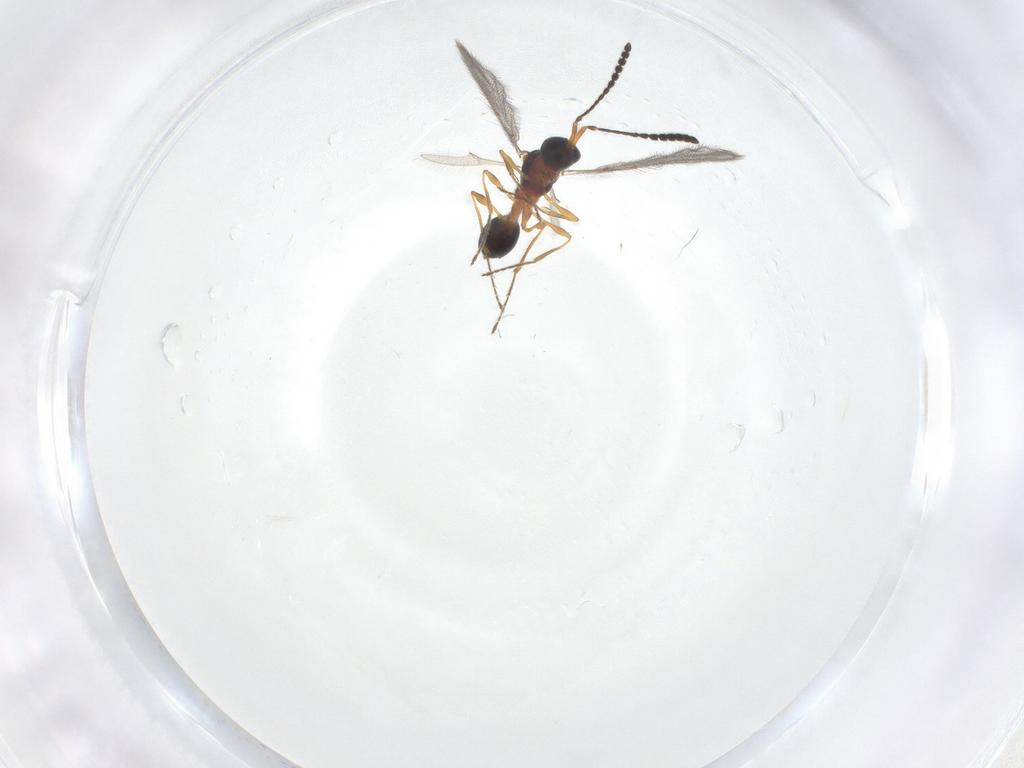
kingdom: Animalia
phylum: Arthropoda
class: Insecta
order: Hymenoptera
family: Diapriidae
